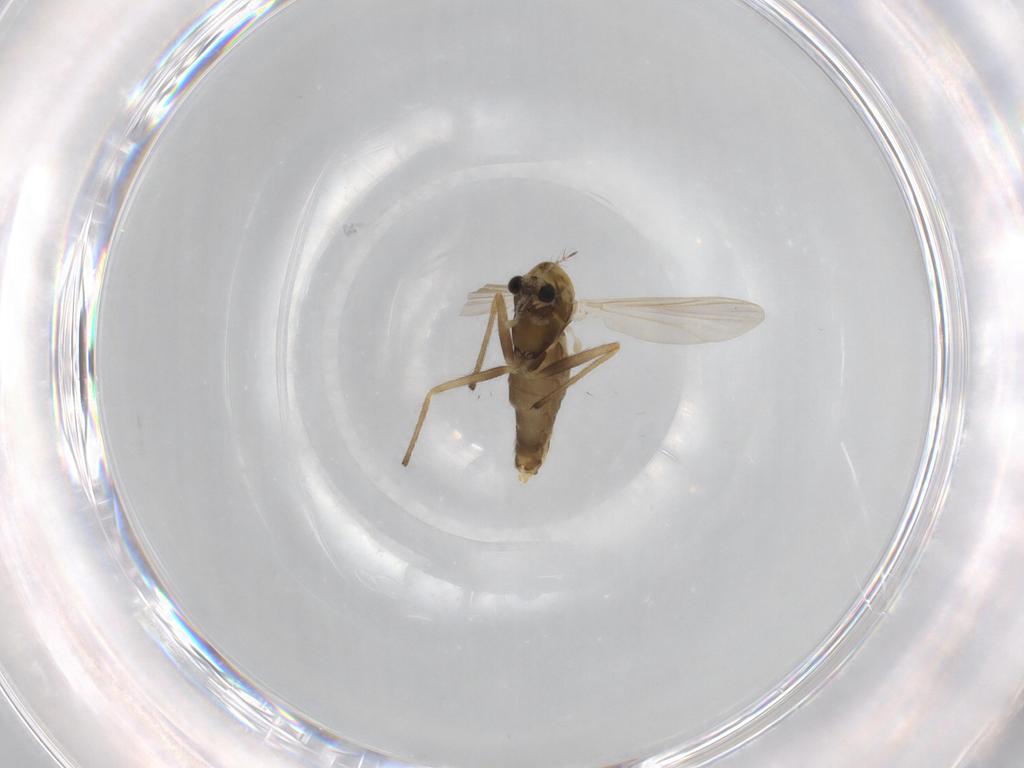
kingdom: Animalia
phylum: Arthropoda
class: Insecta
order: Diptera
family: Chironomidae
